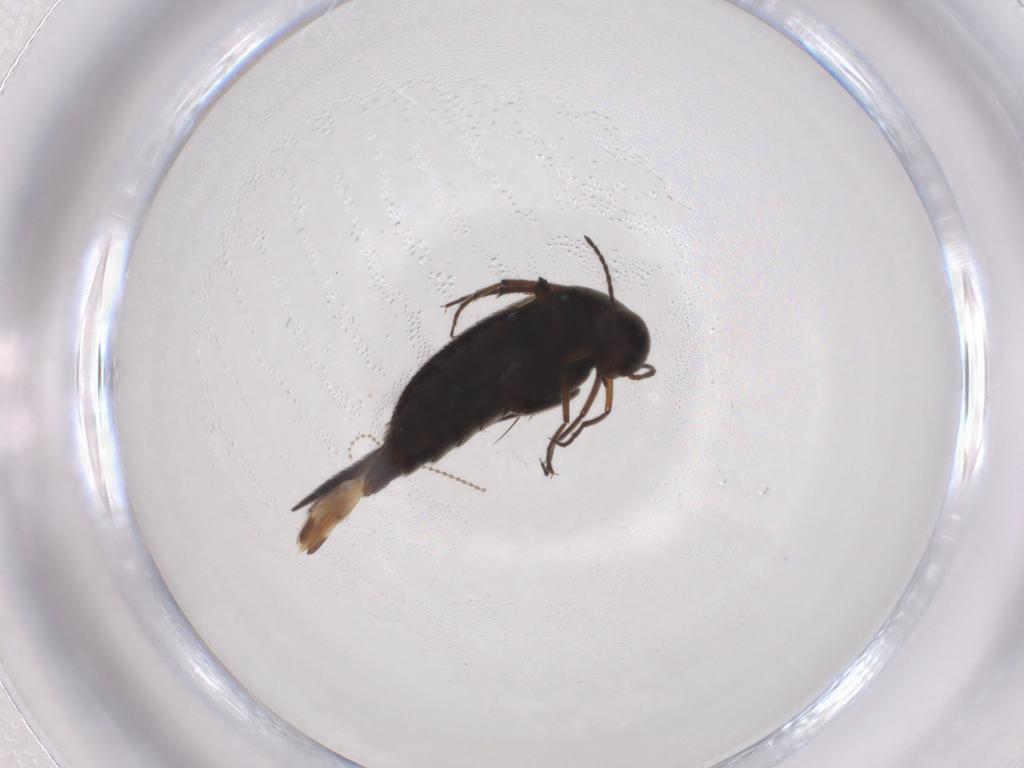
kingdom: Animalia
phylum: Arthropoda
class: Insecta
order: Coleoptera
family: Mordellidae
